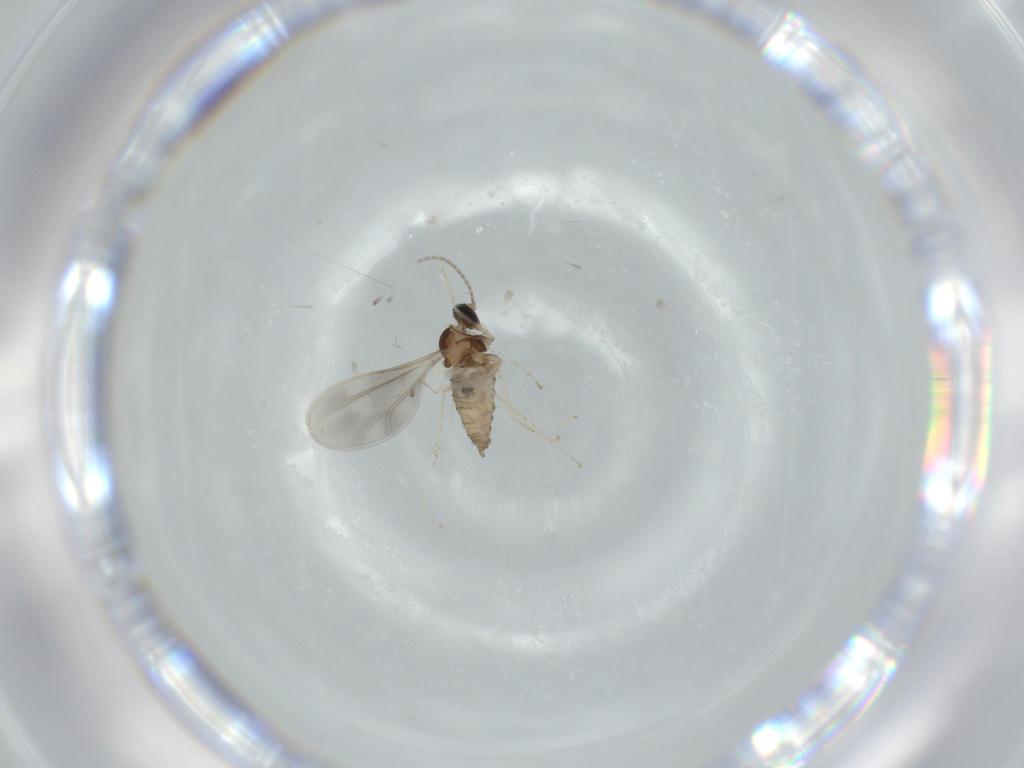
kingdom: Animalia
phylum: Arthropoda
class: Insecta
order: Diptera
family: Cecidomyiidae
